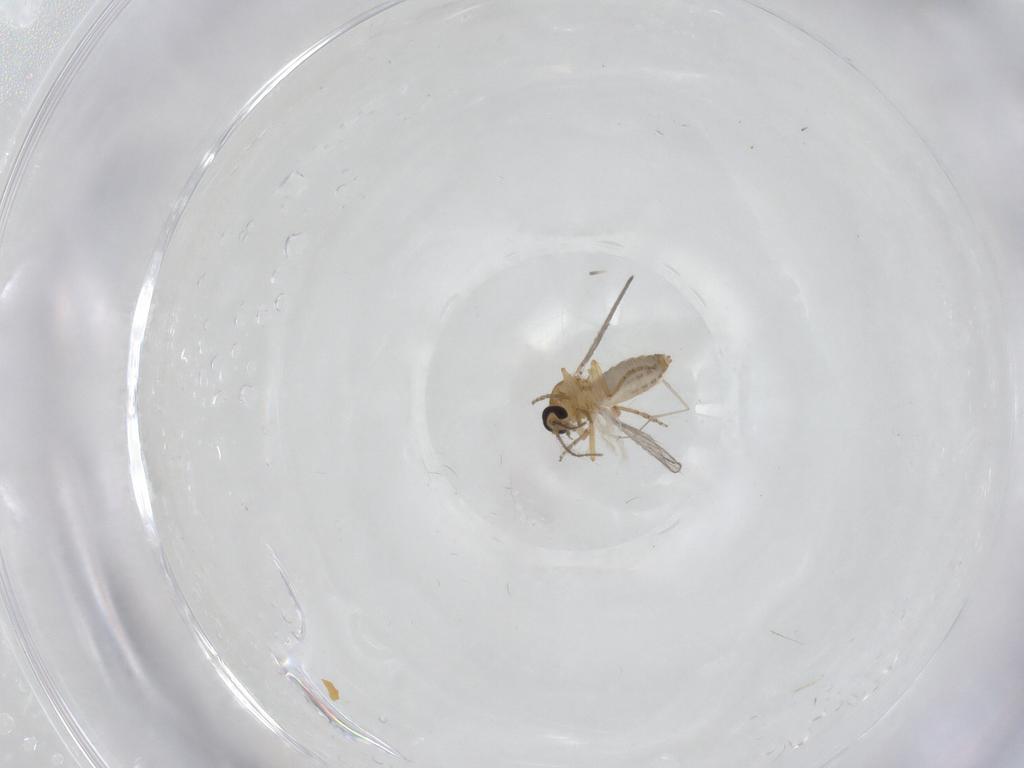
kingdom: Animalia
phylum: Arthropoda
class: Insecta
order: Diptera
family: Ceratopogonidae
